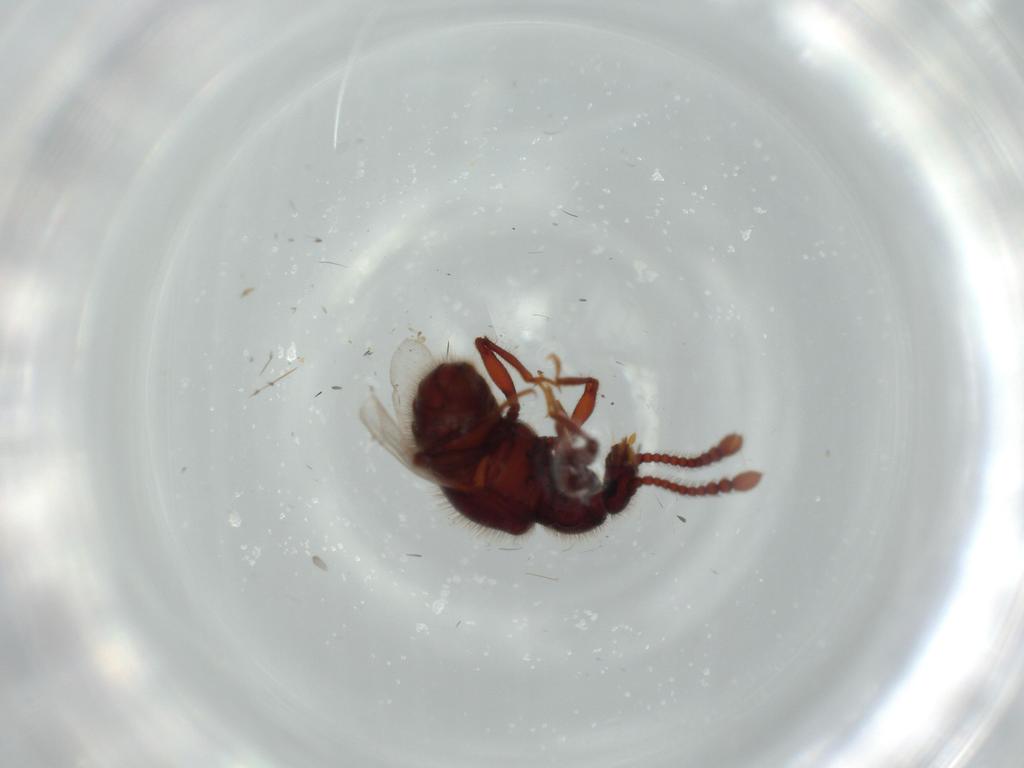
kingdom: Animalia
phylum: Arthropoda
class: Insecta
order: Coleoptera
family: Staphylinidae
